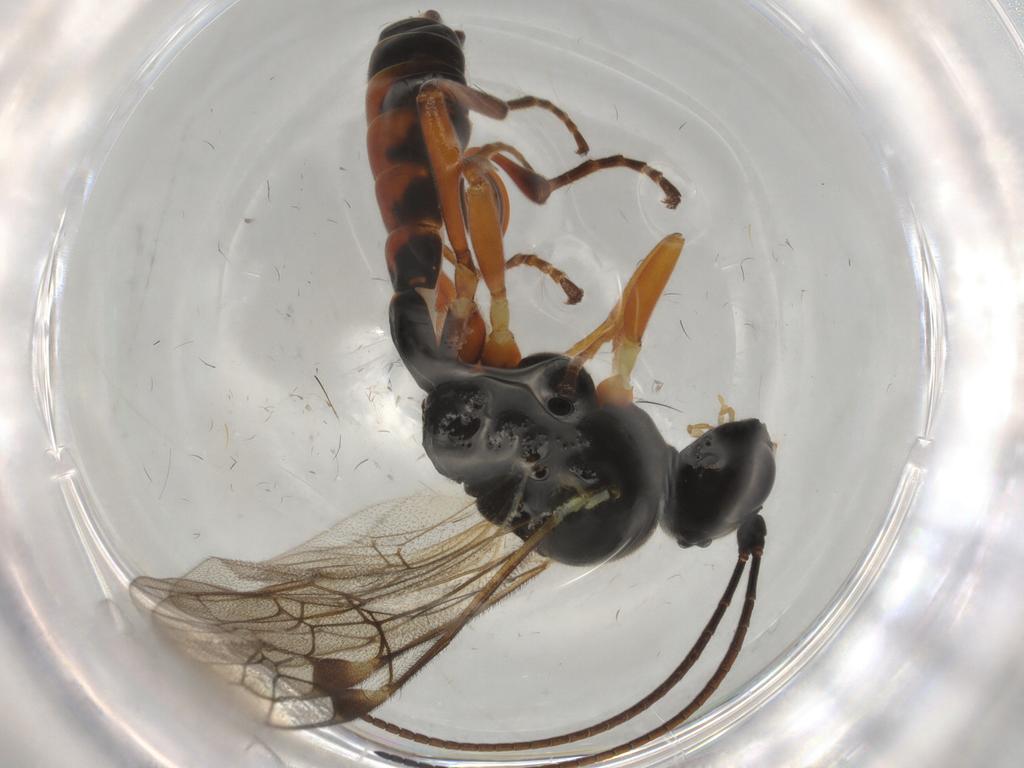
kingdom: Animalia
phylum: Arthropoda
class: Insecta
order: Hymenoptera
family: Ichneumonidae
